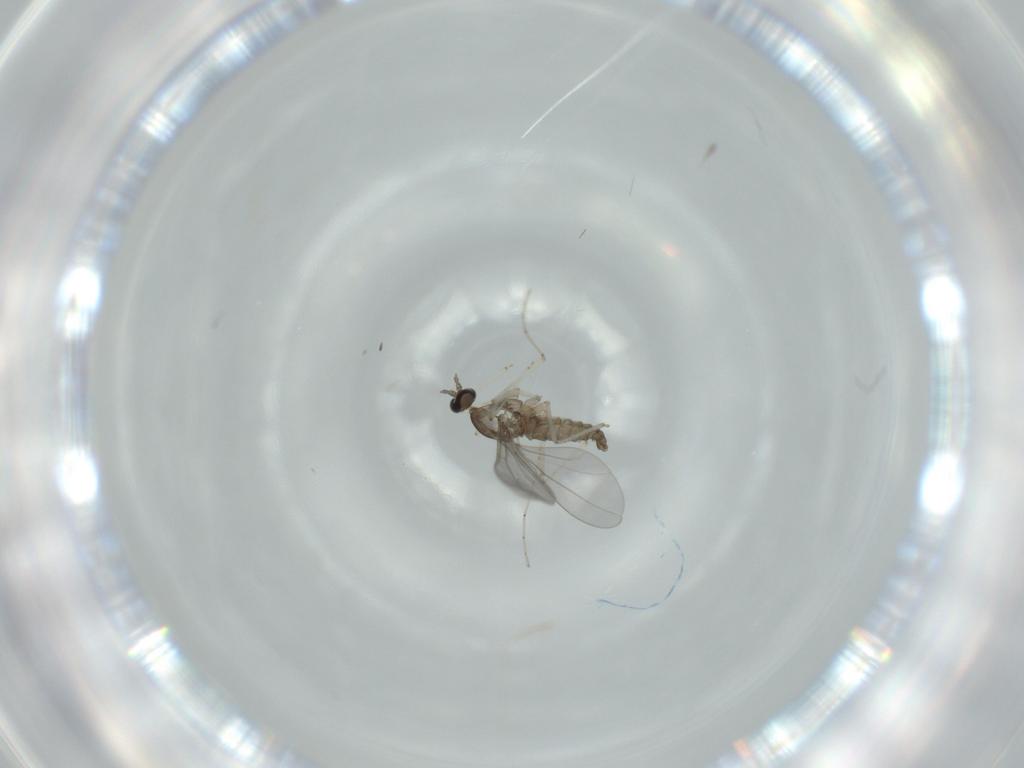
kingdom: Animalia
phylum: Arthropoda
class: Insecta
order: Diptera
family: Cecidomyiidae
